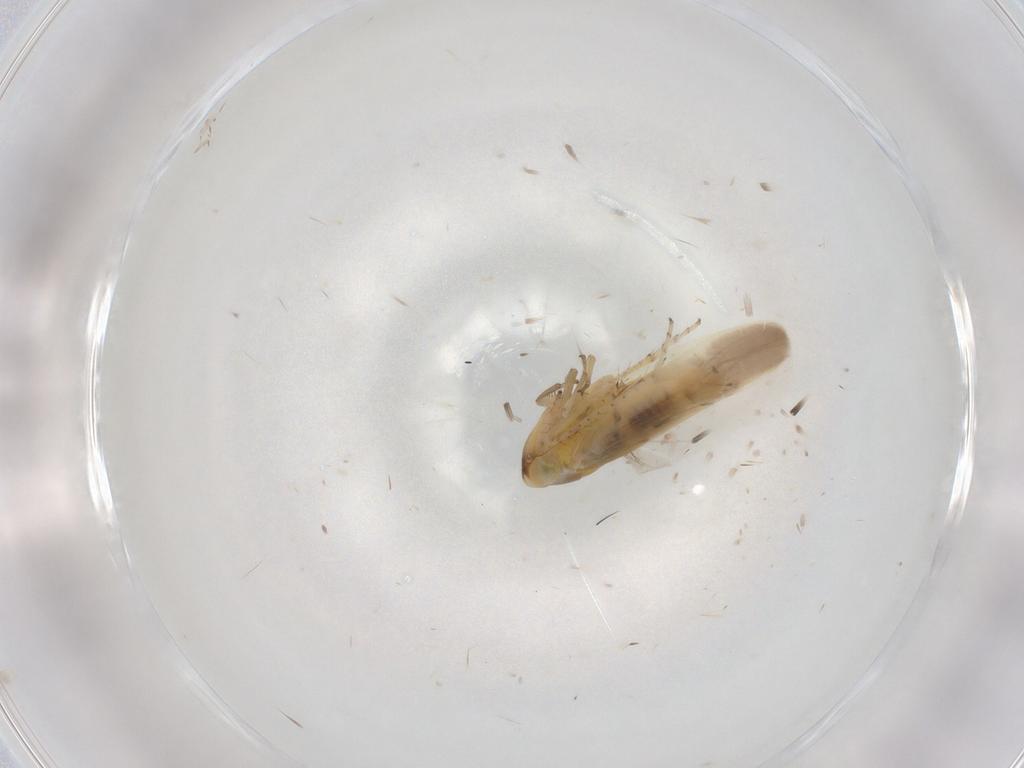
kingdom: Animalia
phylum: Arthropoda
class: Insecta
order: Hemiptera
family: Cicadellidae
